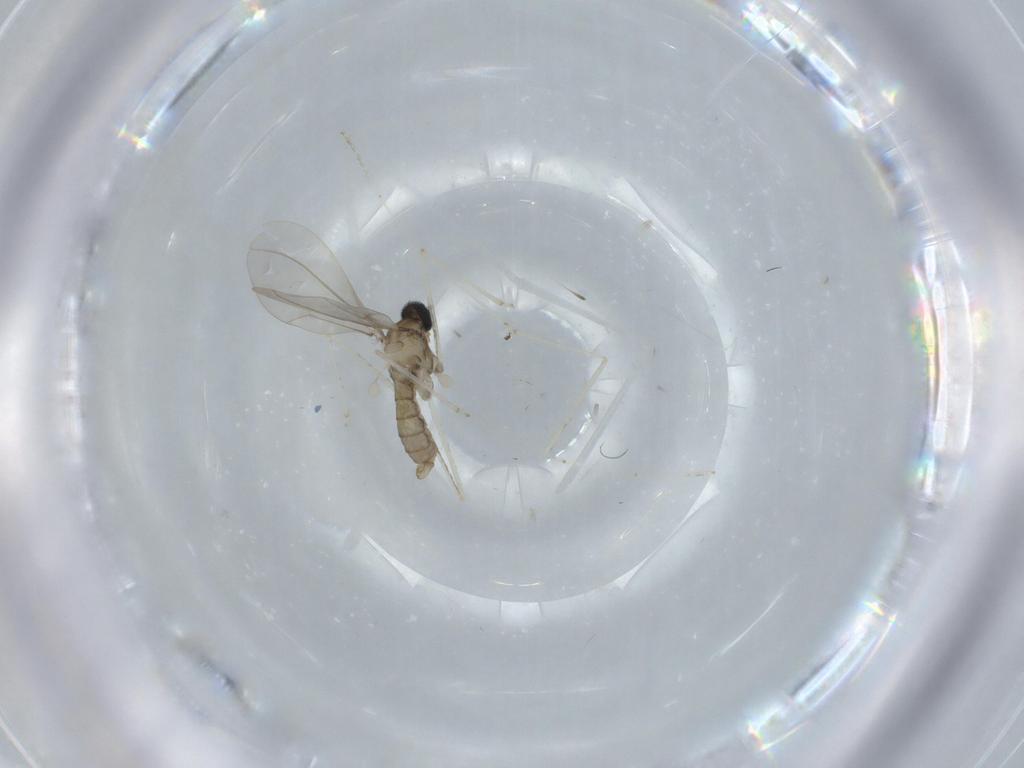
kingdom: Animalia
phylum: Arthropoda
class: Insecta
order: Diptera
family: Cecidomyiidae
